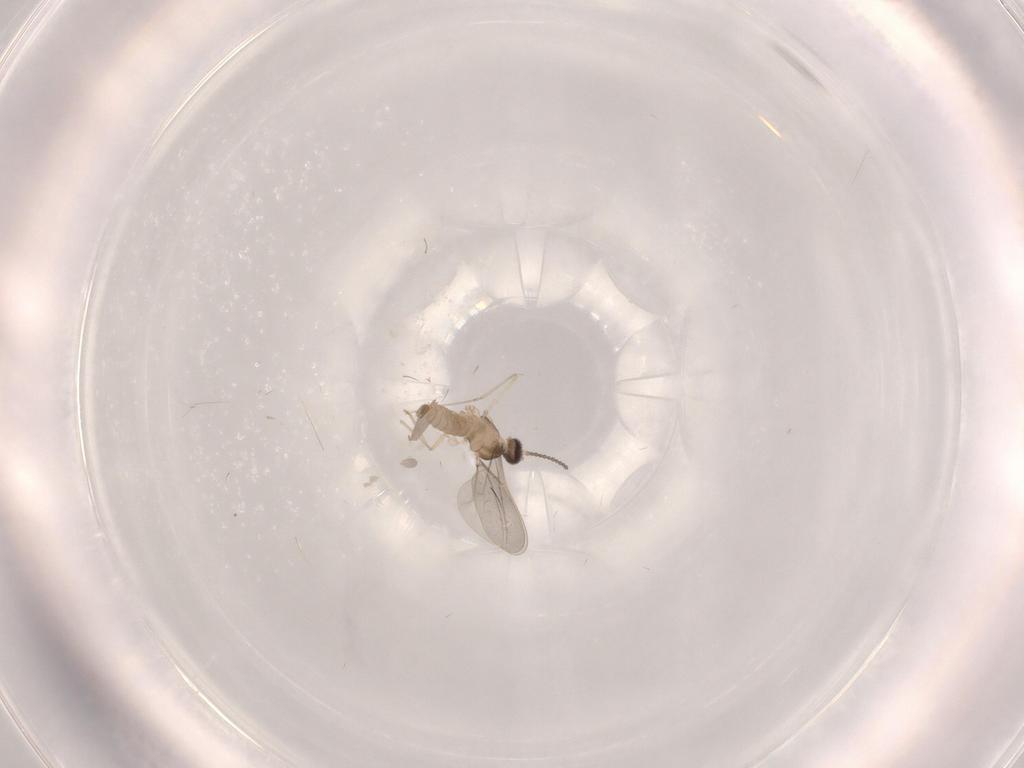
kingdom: Animalia
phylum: Arthropoda
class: Insecta
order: Diptera
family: Cecidomyiidae
